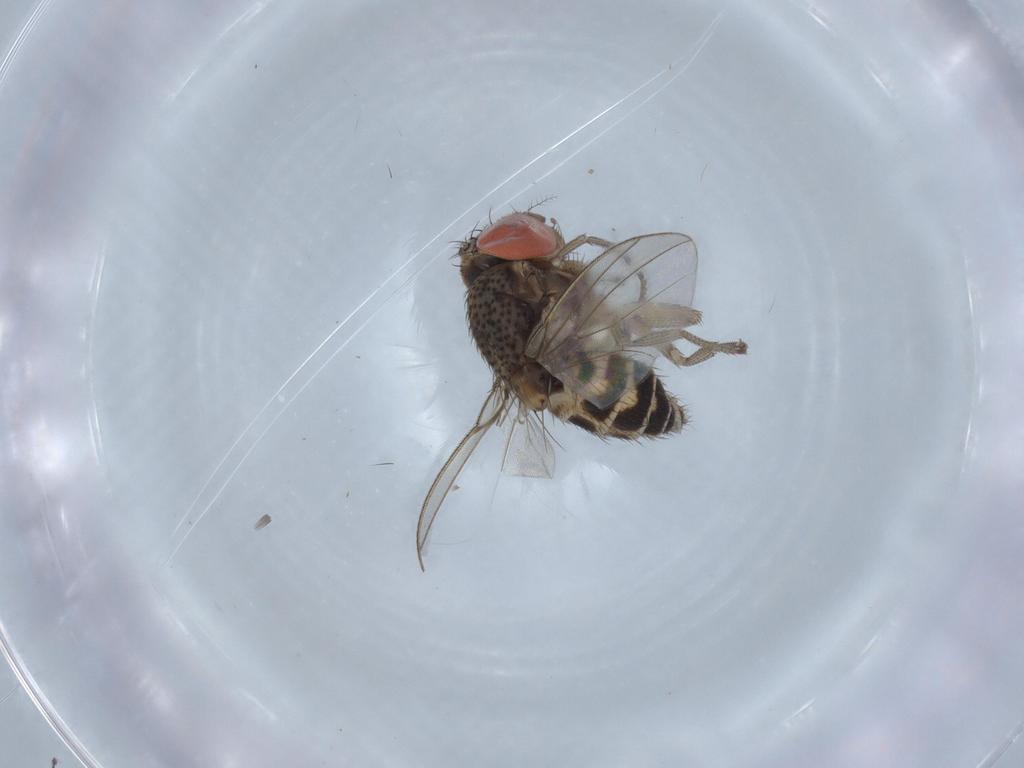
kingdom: Animalia
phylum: Arthropoda
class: Insecta
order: Diptera
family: Drosophilidae
